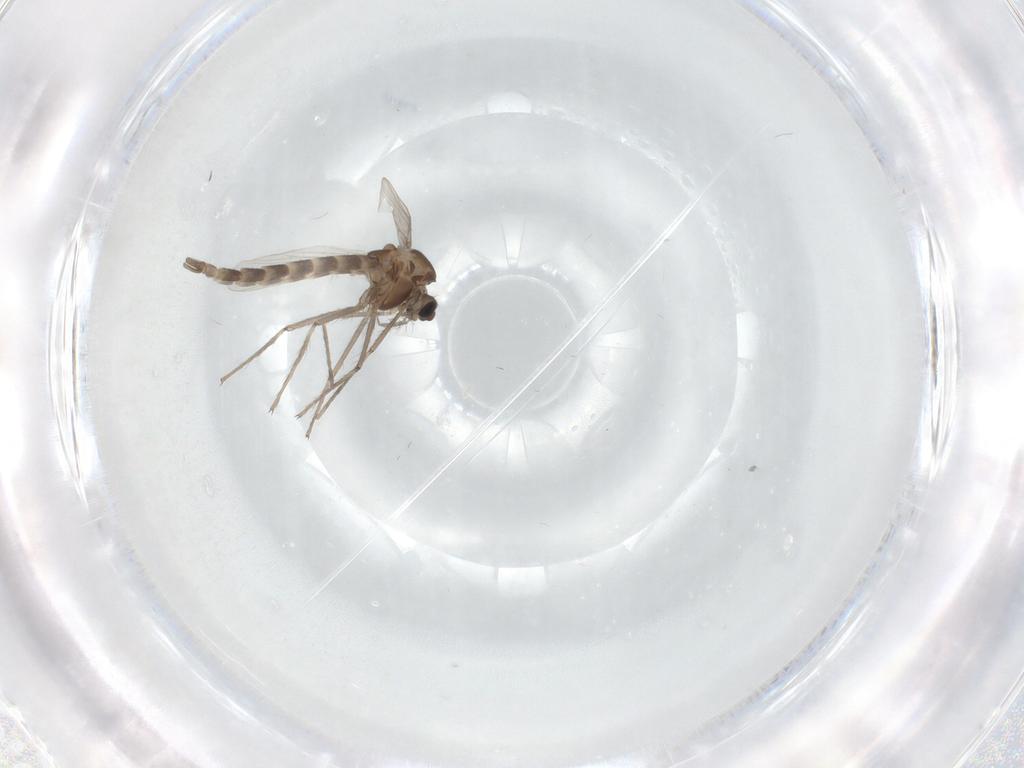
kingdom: Animalia
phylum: Arthropoda
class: Insecta
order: Diptera
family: Chironomidae
